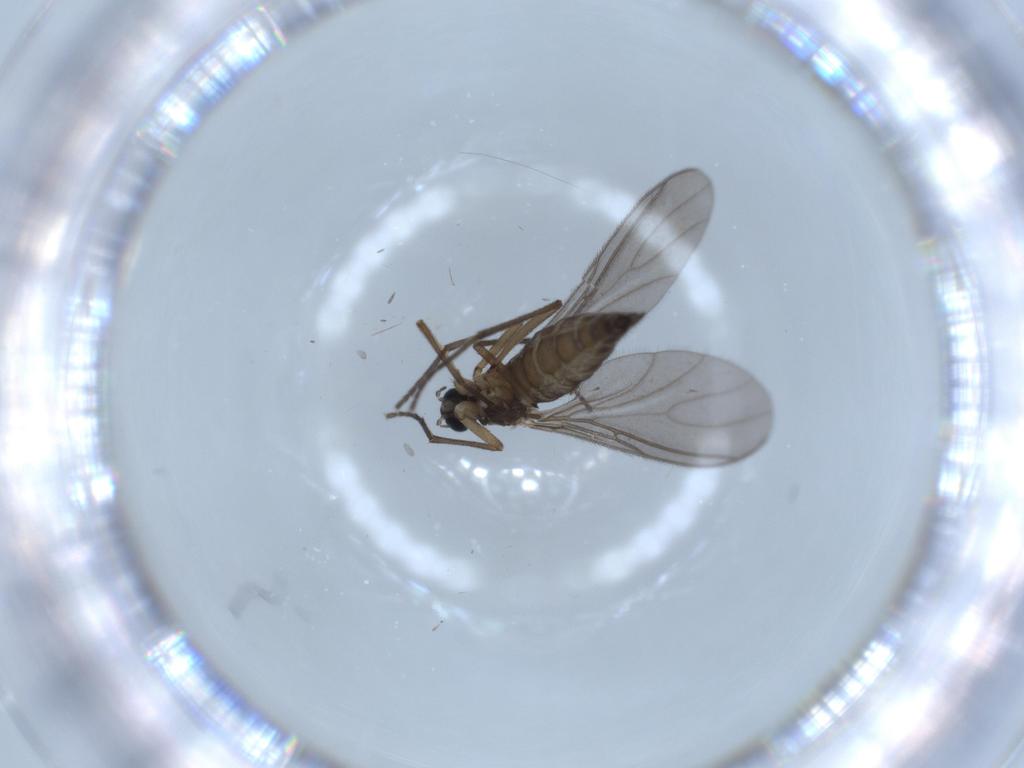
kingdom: Animalia
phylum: Arthropoda
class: Insecta
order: Diptera
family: Sciaridae
